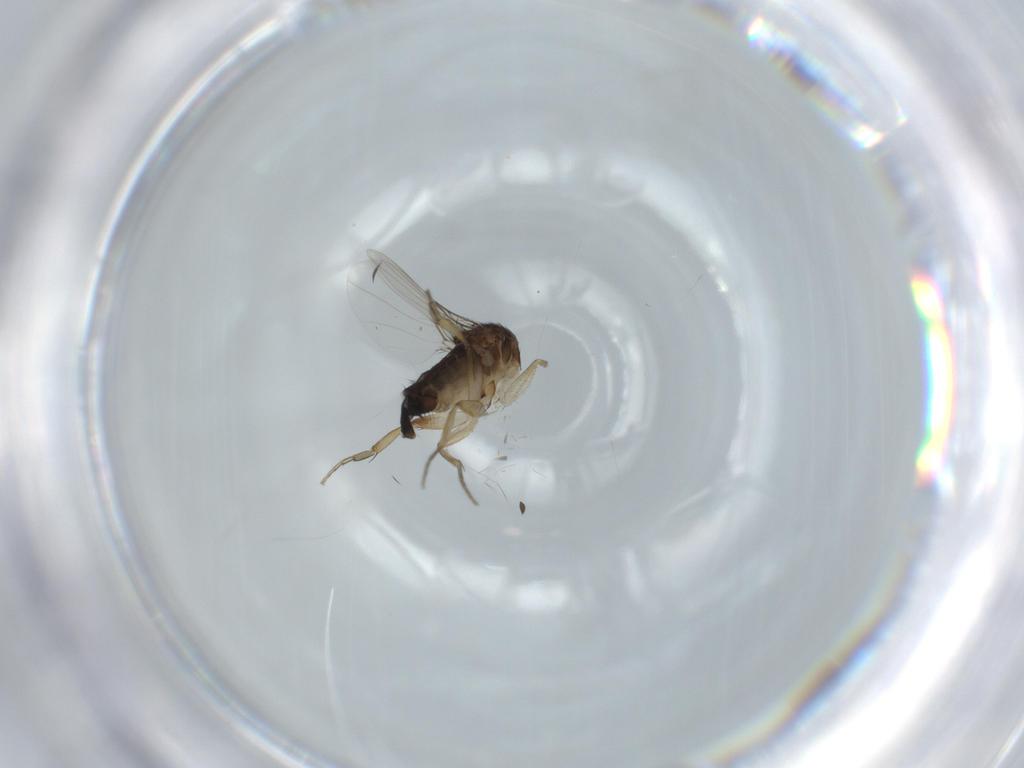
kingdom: Animalia
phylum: Arthropoda
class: Insecta
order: Diptera
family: Phoridae
